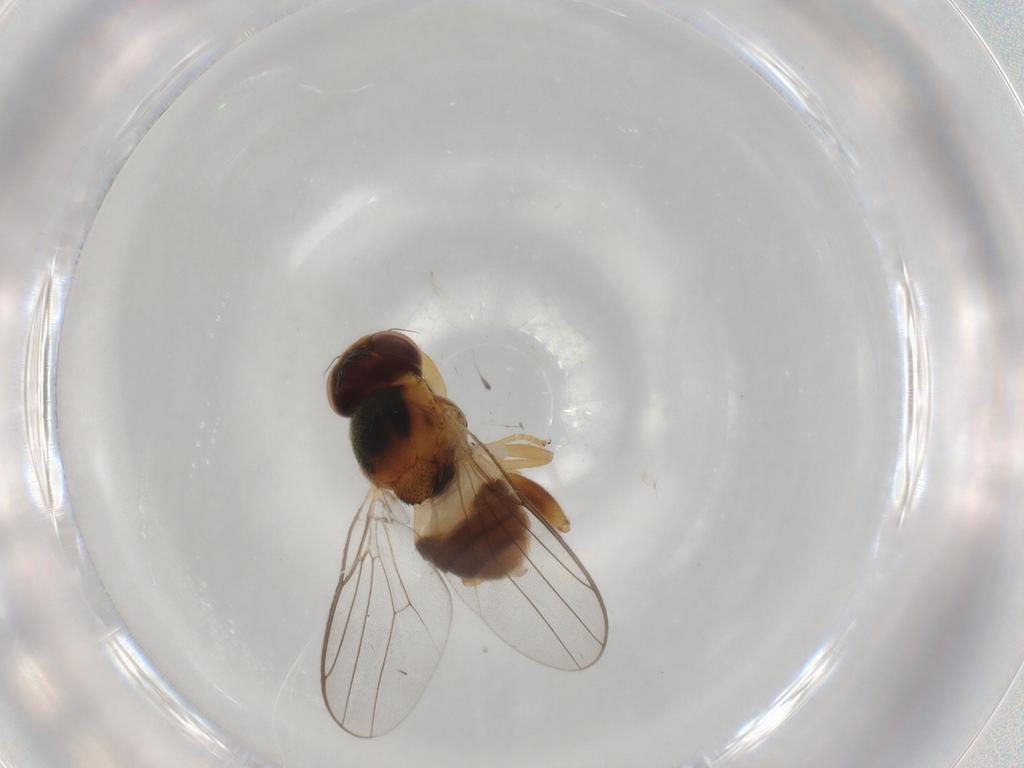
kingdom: Animalia
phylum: Arthropoda
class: Insecta
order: Diptera
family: Chloropidae
